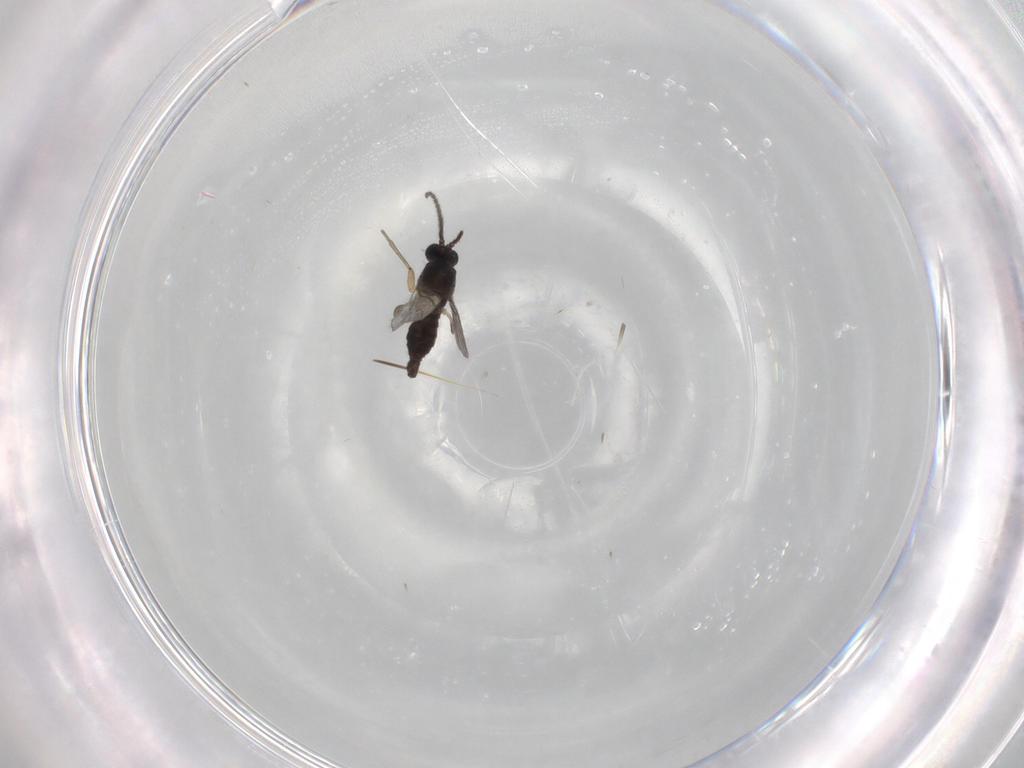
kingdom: Animalia
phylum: Arthropoda
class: Insecta
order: Diptera
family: Sciaridae
